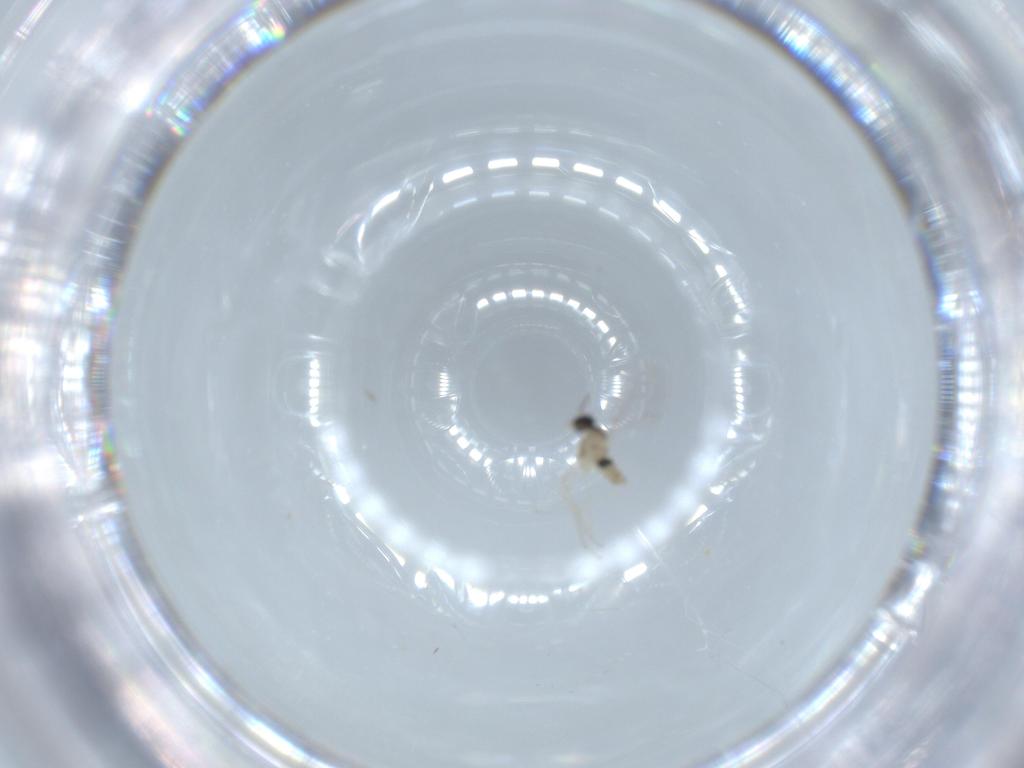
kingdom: Animalia
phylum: Arthropoda
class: Insecta
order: Diptera
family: Cecidomyiidae
